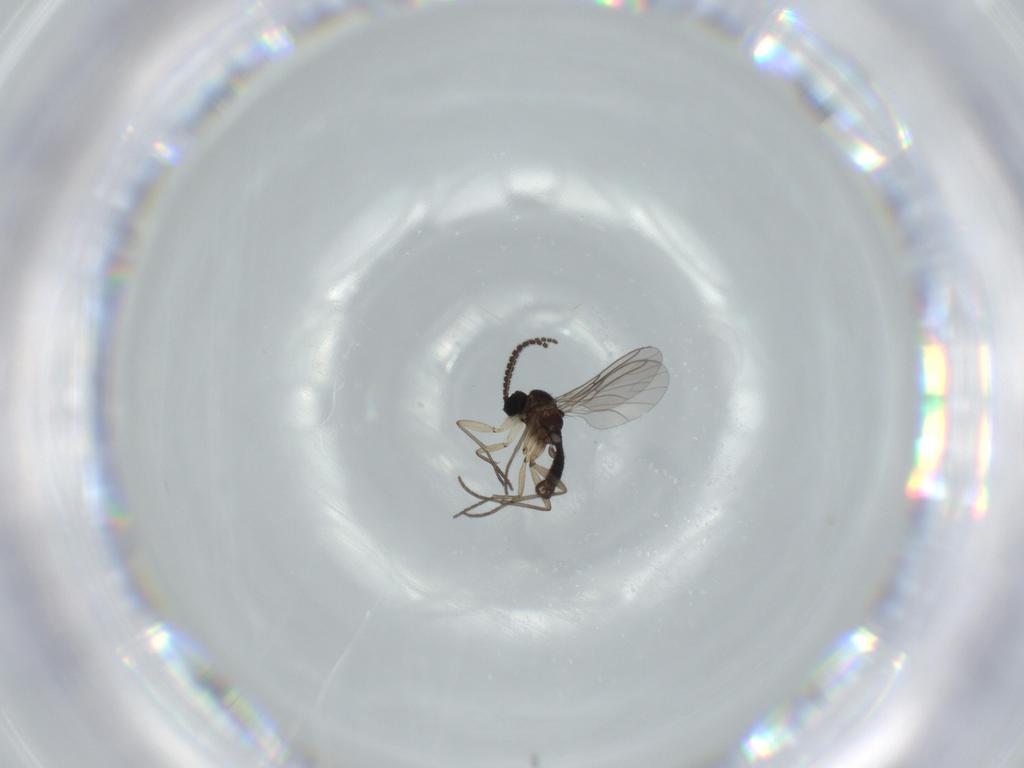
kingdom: Animalia
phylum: Arthropoda
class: Insecta
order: Diptera
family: Sciaridae
